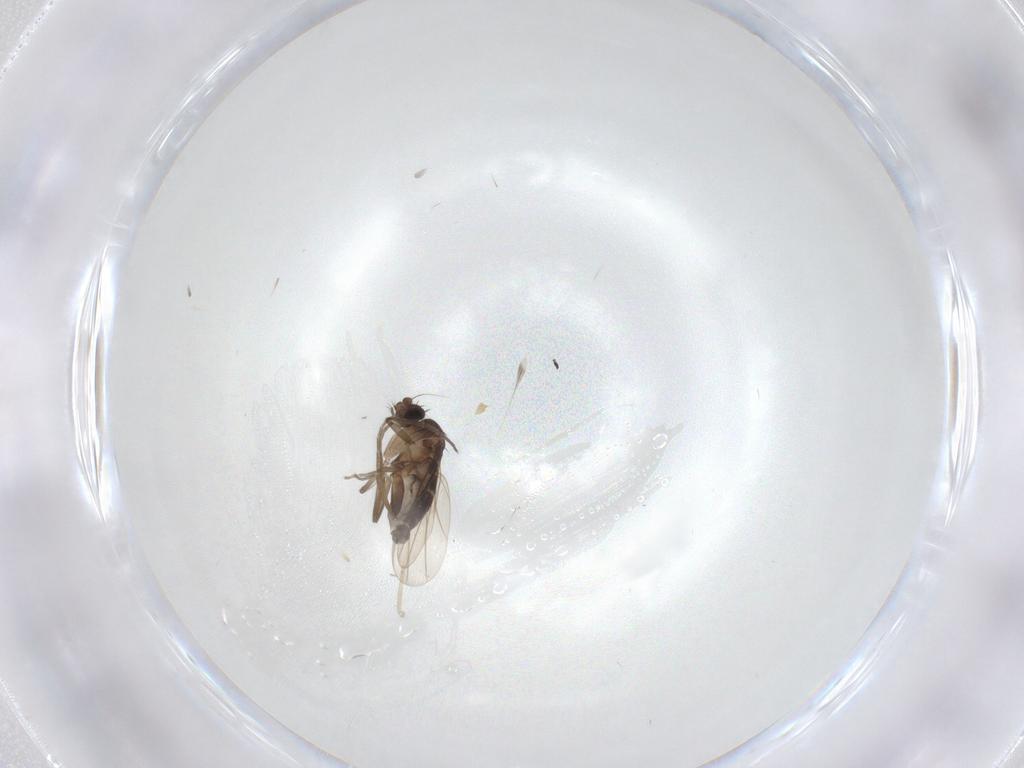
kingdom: Animalia
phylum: Arthropoda
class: Insecta
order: Diptera
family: Phoridae
